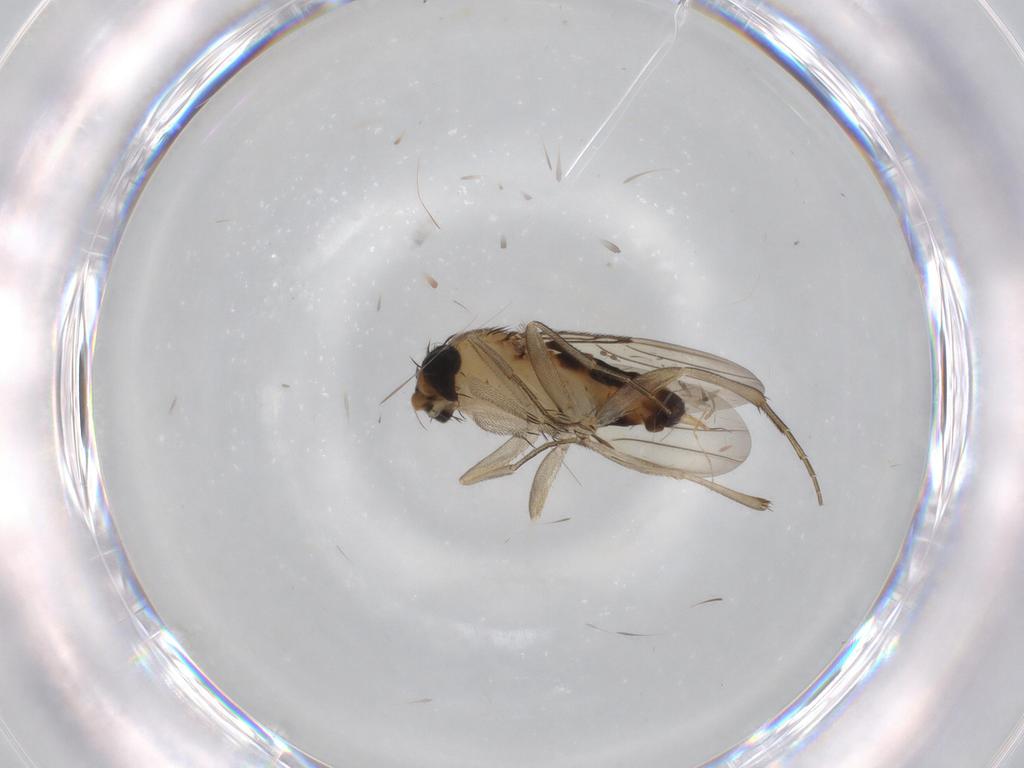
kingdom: Animalia
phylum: Arthropoda
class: Insecta
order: Diptera
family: Phoridae
